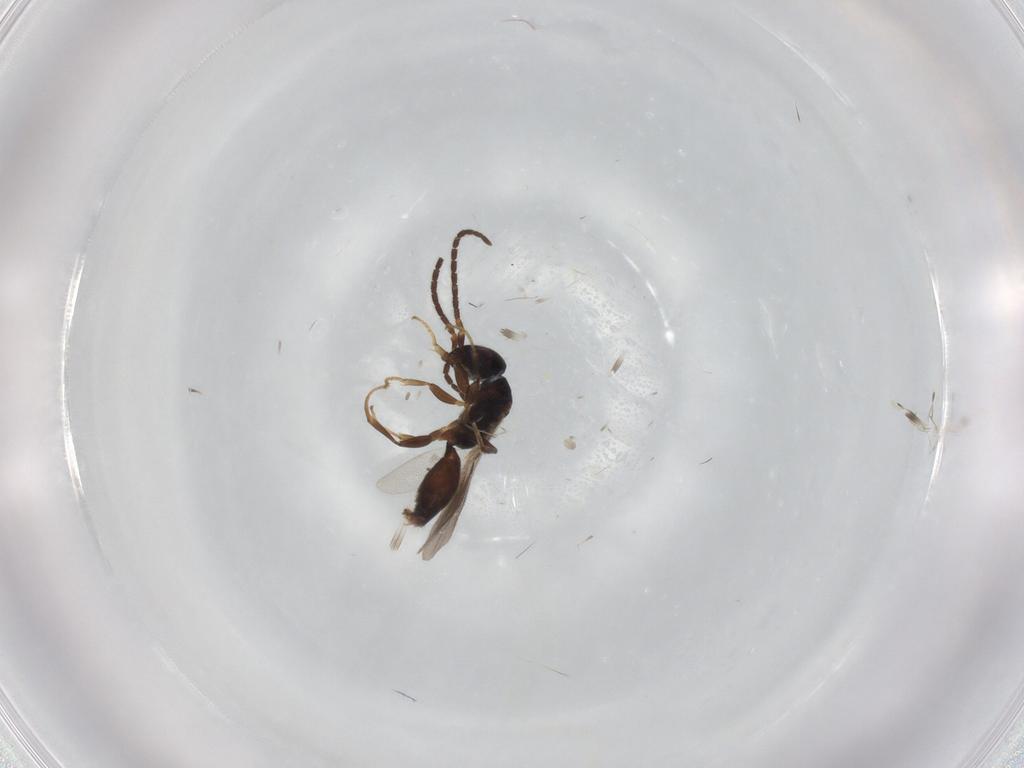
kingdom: Animalia
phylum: Arthropoda
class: Insecta
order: Hymenoptera
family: Bethylidae
